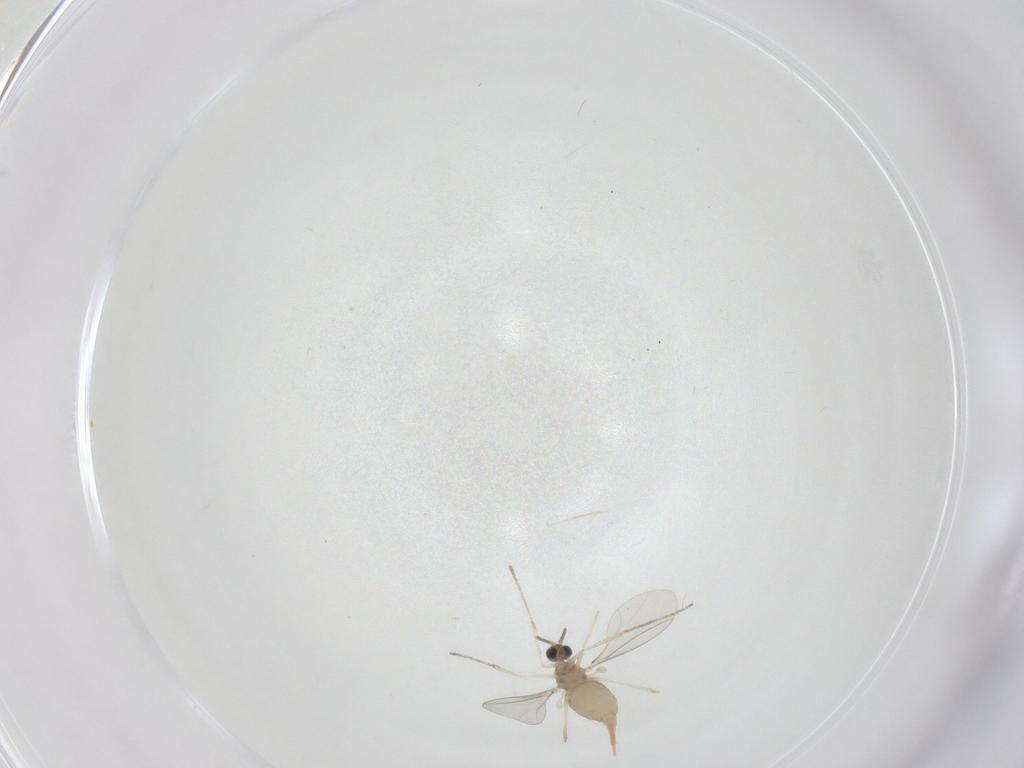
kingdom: Animalia
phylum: Arthropoda
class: Insecta
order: Diptera
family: Cecidomyiidae
